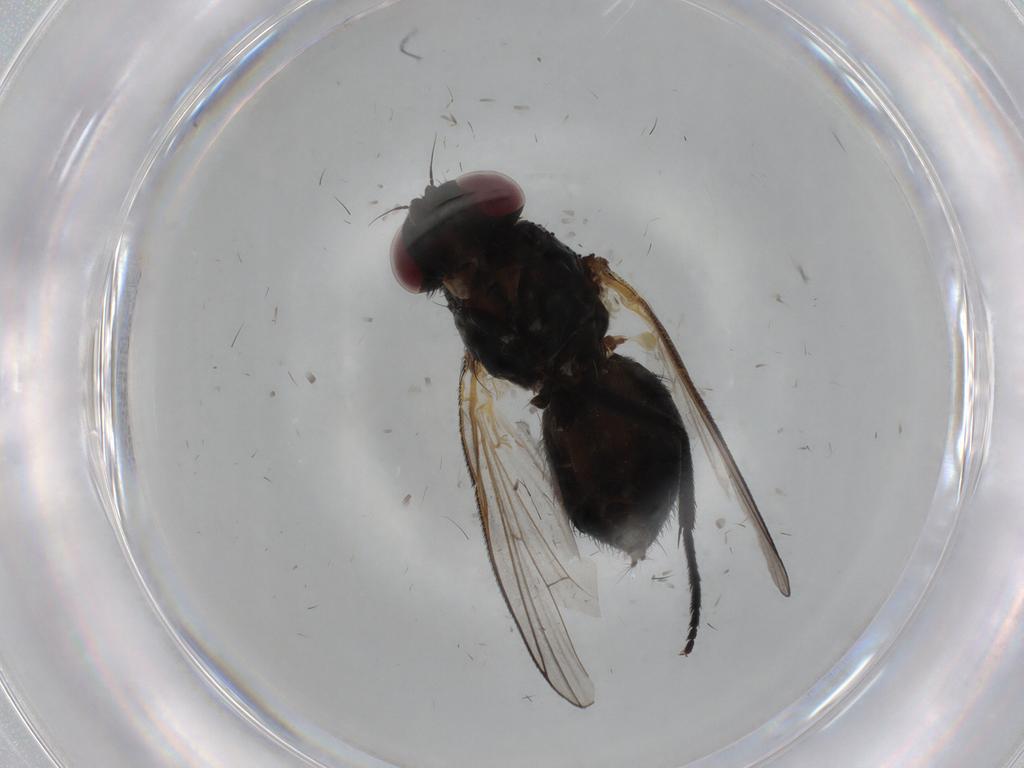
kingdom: Animalia
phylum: Arthropoda
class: Insecta
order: Diptera
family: Fannia
